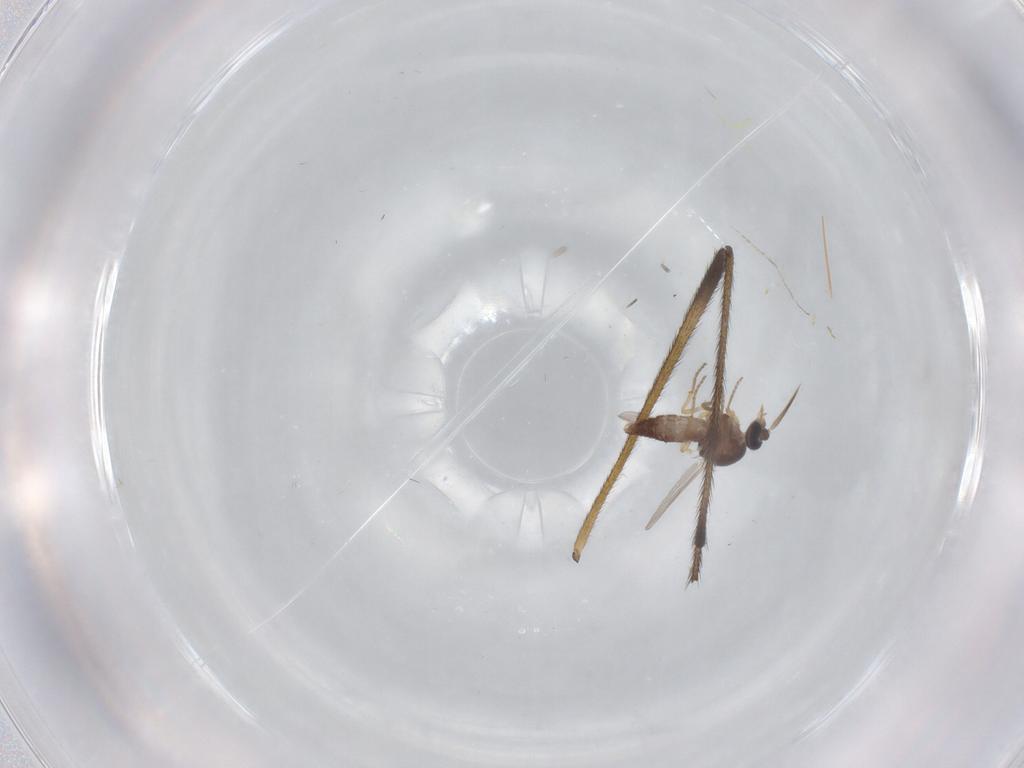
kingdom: Animalia
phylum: Arthropoda
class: Insecta
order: Diptera
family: Ceratopogonidae
